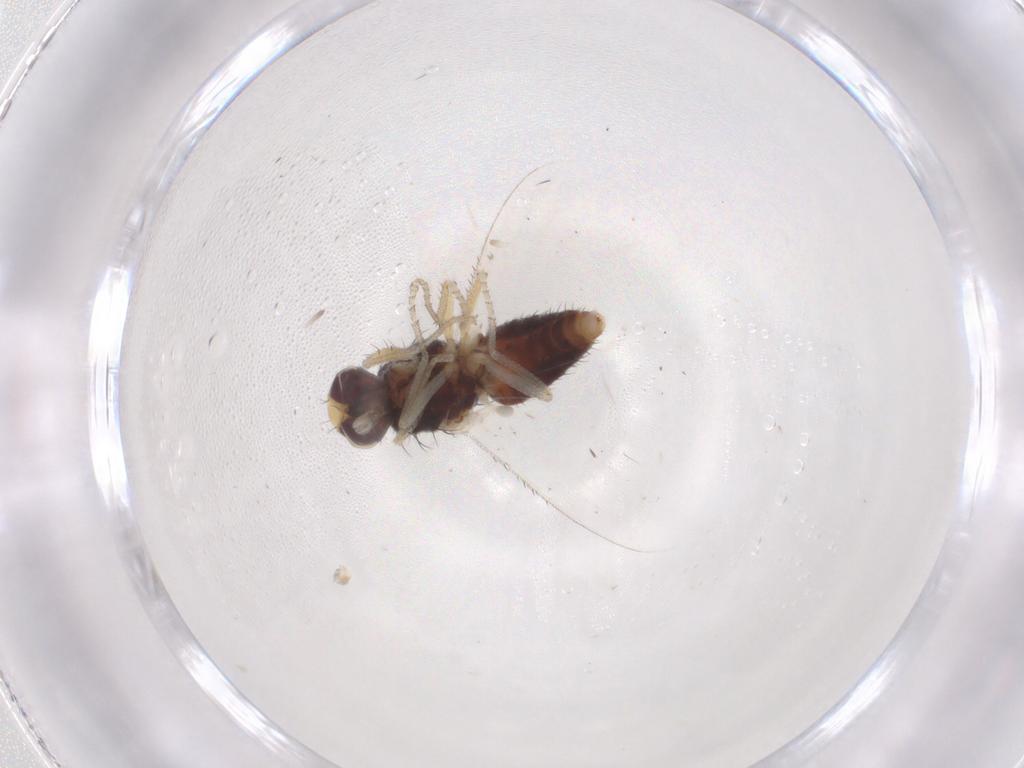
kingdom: Animalia
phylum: Arthropoda
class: Insecta
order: Diptera
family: Heleomyzidae
